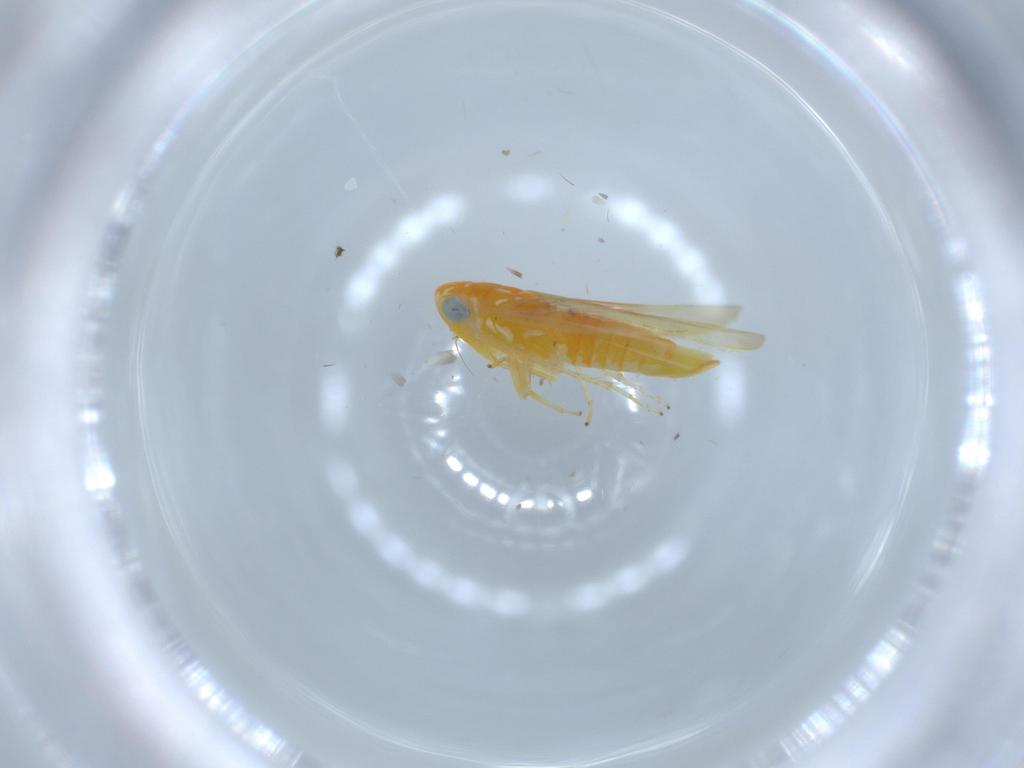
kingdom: Animalia
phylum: Arthropoda
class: Insecta
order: Hemiptera
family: Cicadellidae
